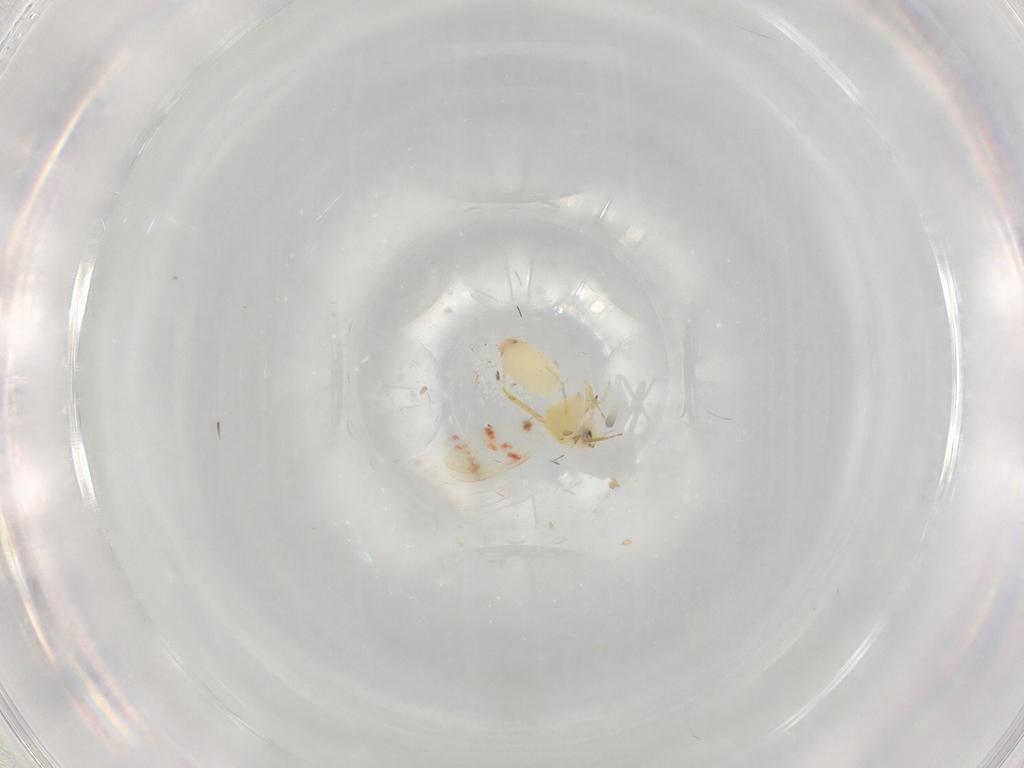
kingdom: Animalia
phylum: Arthropoda
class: Insecta
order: Hemiptera
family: Aleyrodidae
